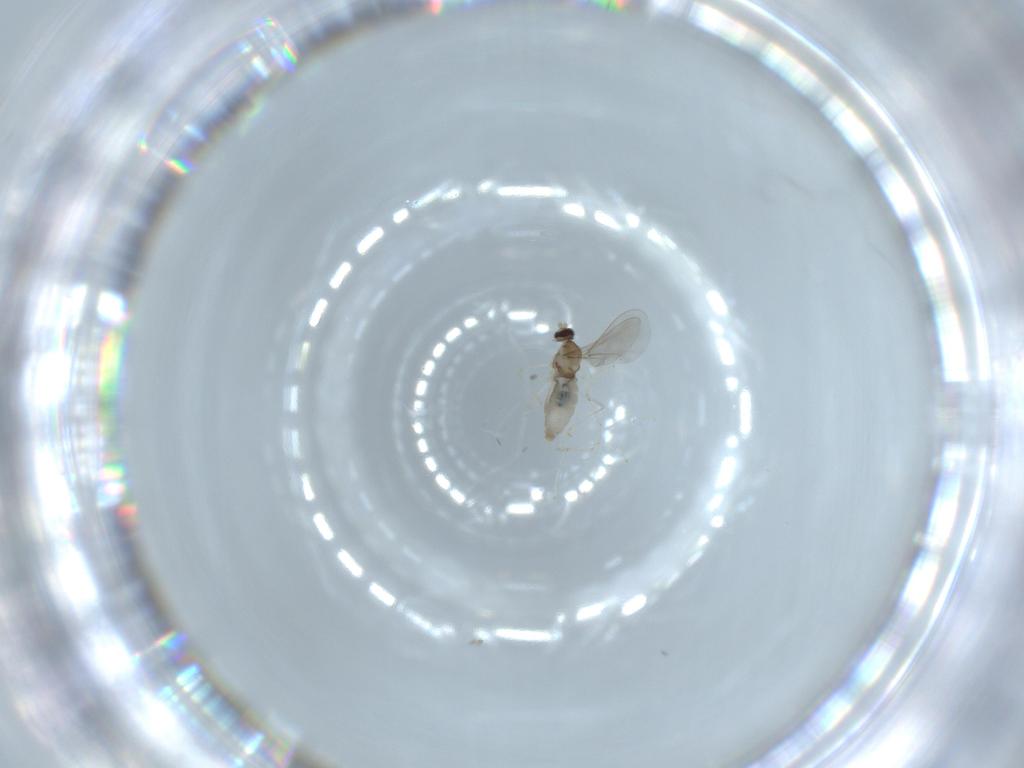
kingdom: Animalia
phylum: Arthropoda
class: Insecta
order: Diptera
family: Cecidomyiidae
